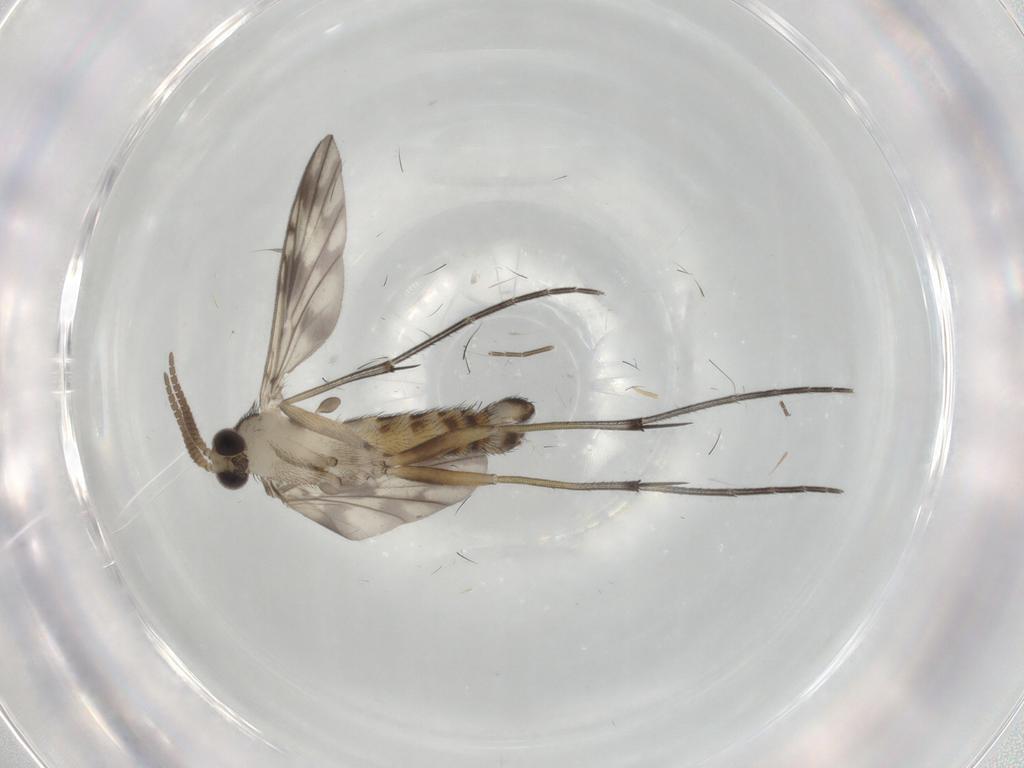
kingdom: Animalia
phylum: Arthropoda
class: Insecta
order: Diptera
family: Keroplatidae
